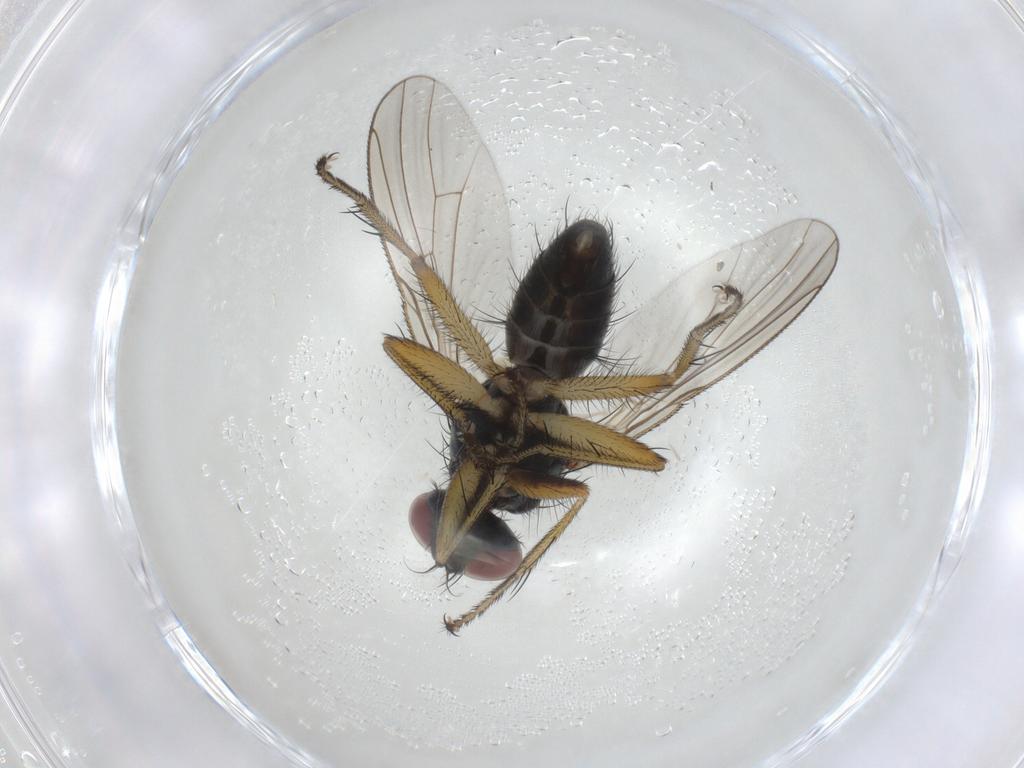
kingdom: Animalia
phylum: Arthropoda
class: Insecta
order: Diptera
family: Muscidae
